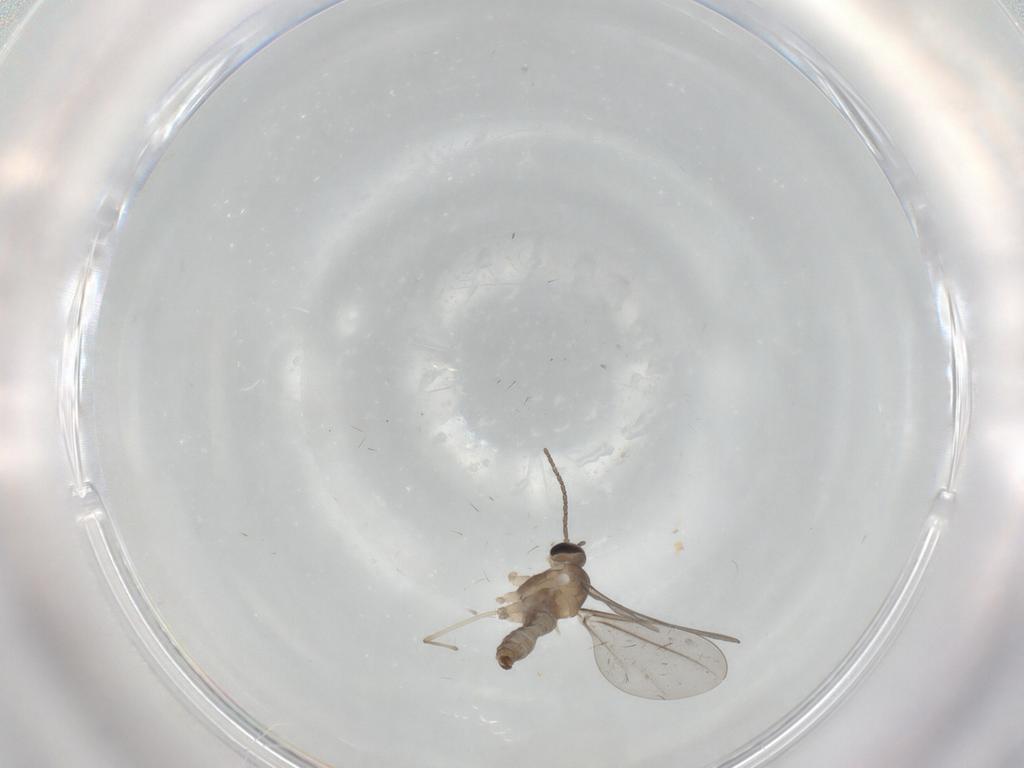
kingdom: Animalia
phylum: Arthropoda
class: Insecta
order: Diptera
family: Cecidomyiidae
